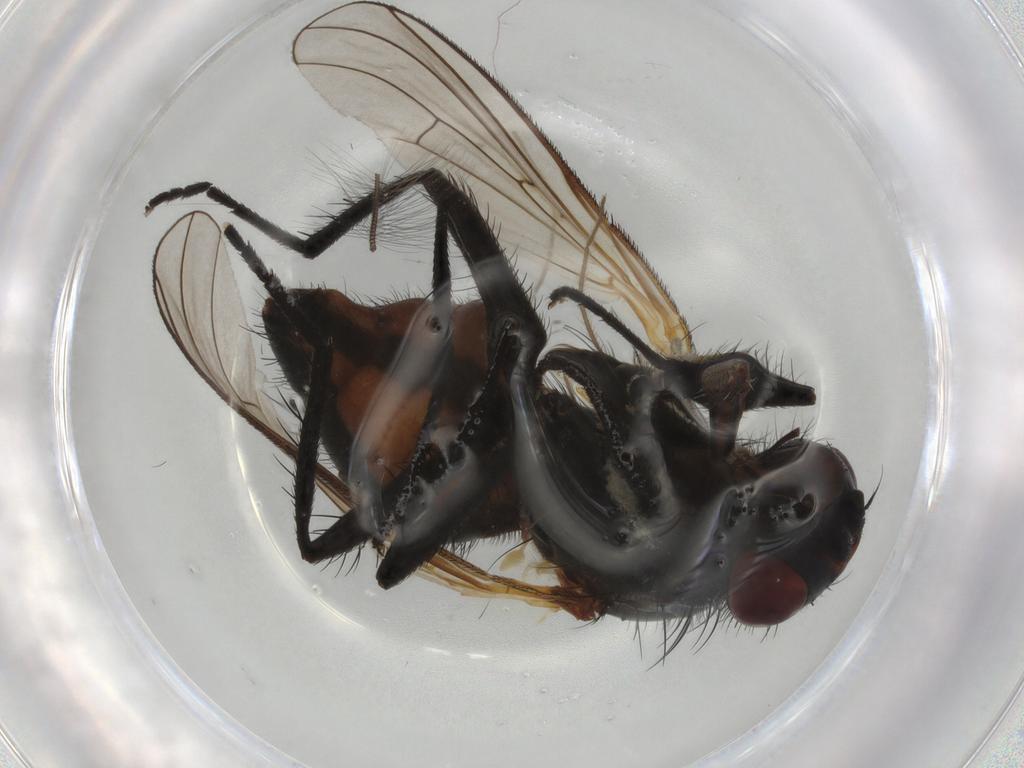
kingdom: Animalia
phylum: Arthropoda
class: Insecta
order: Diptera
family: Anthomyiidae
